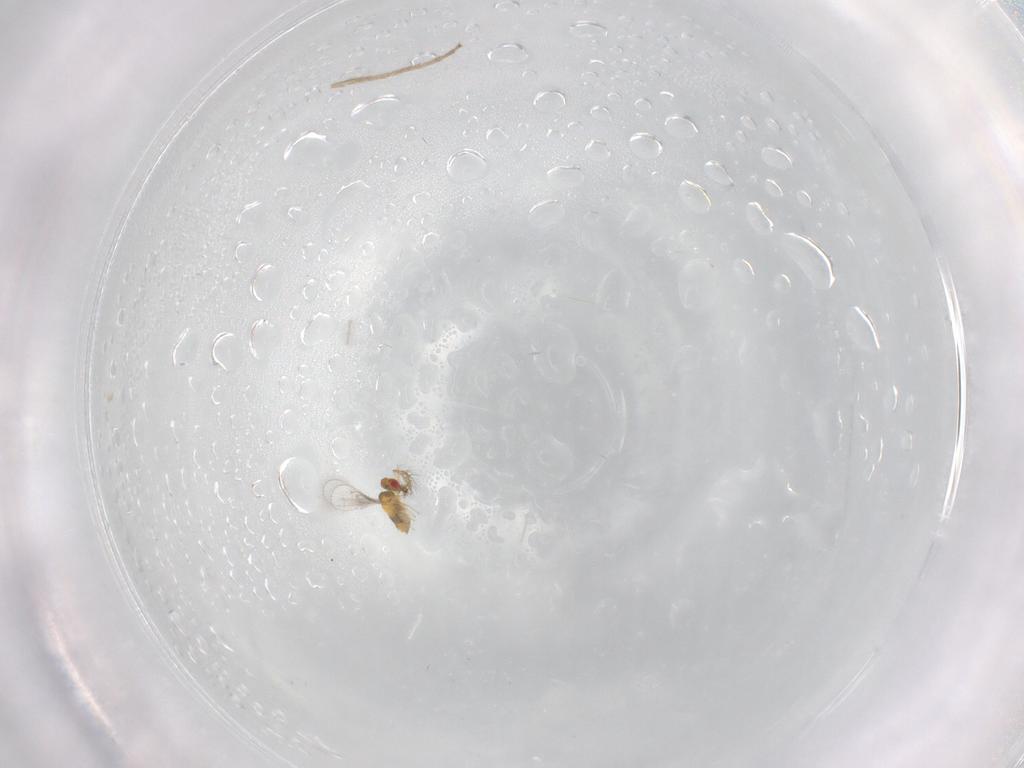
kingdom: Animalia
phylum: Arthropoda
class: Insecta
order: Hymenoptera
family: Trichogrammatidae
